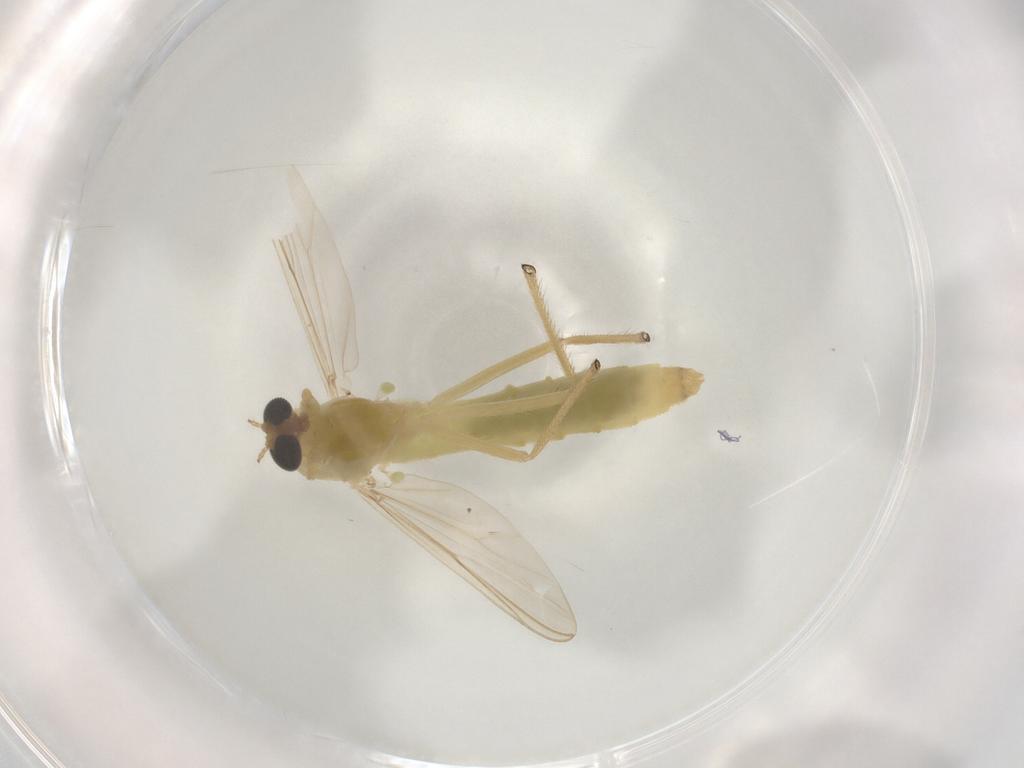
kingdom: Animalia
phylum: Arthropoda
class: Insecta
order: Diptera
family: Chironomidae
